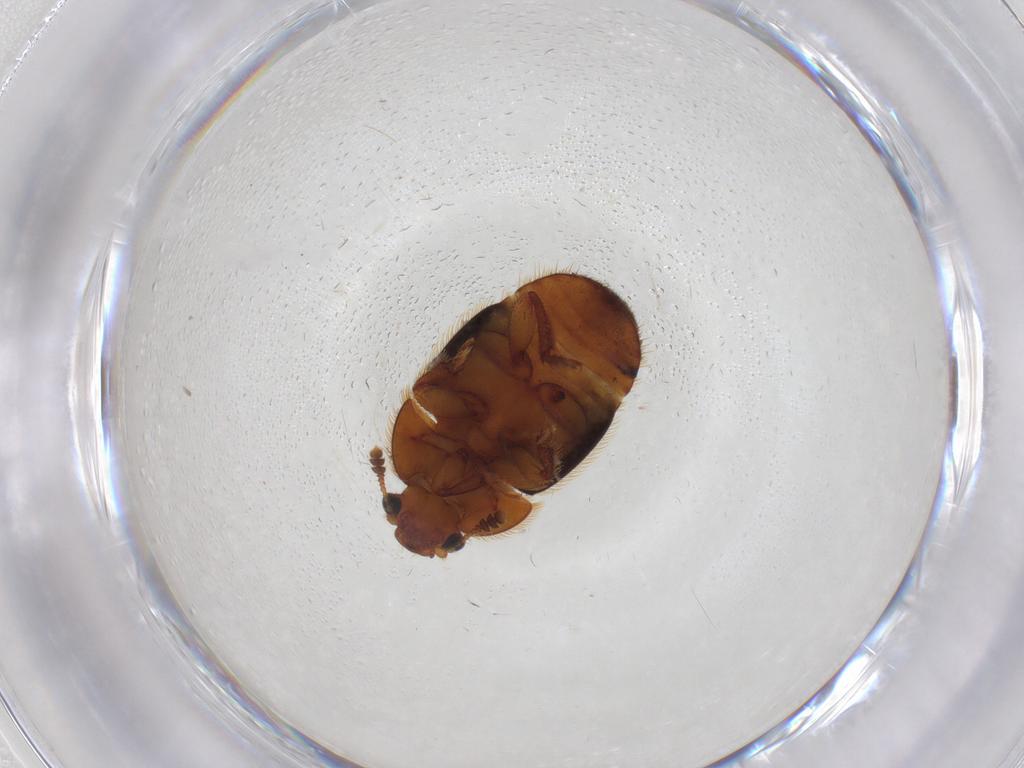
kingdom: Animalia
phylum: Arthropoda
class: Insecta
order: Coleoptera
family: Nitidulidae
